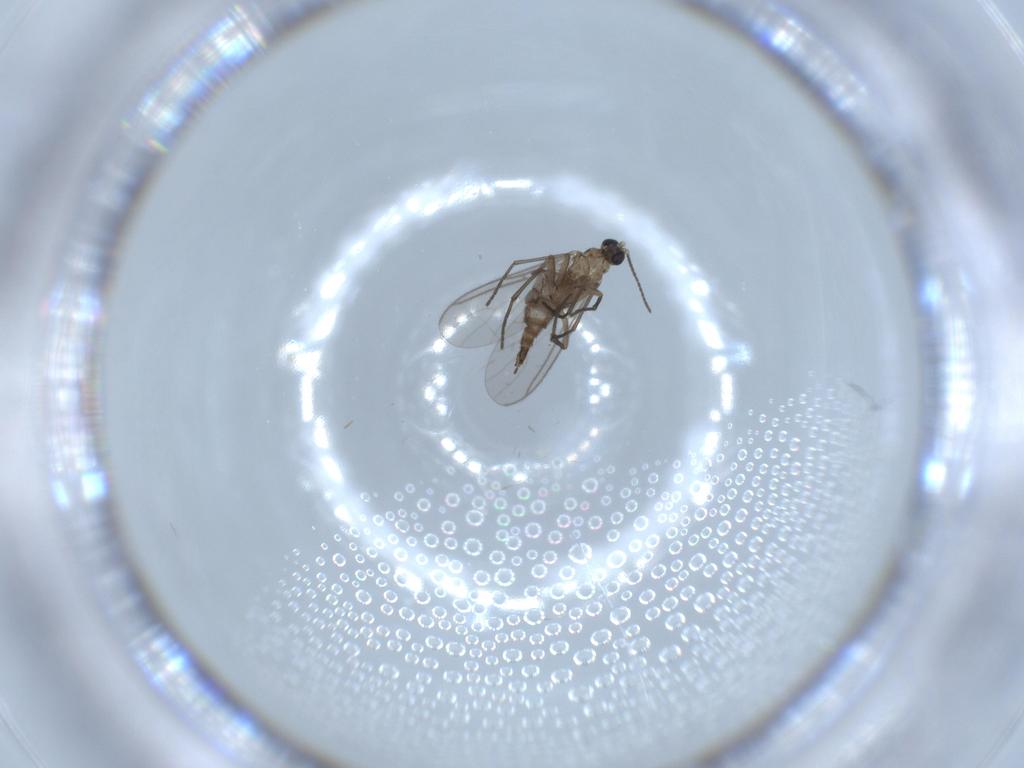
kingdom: Animalia
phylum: Arthropoda
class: Insecta
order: Diptera
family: Sciaridae
